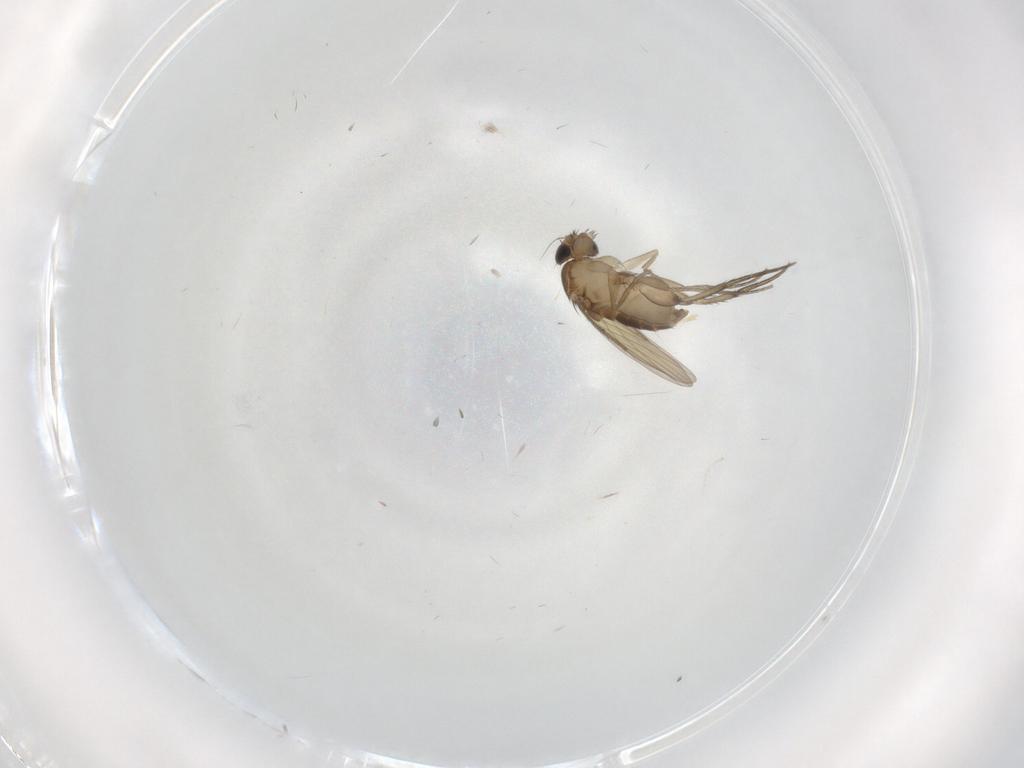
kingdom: Animalia
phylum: Arthropoda
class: Insecta
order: Diptera
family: Phoridae
